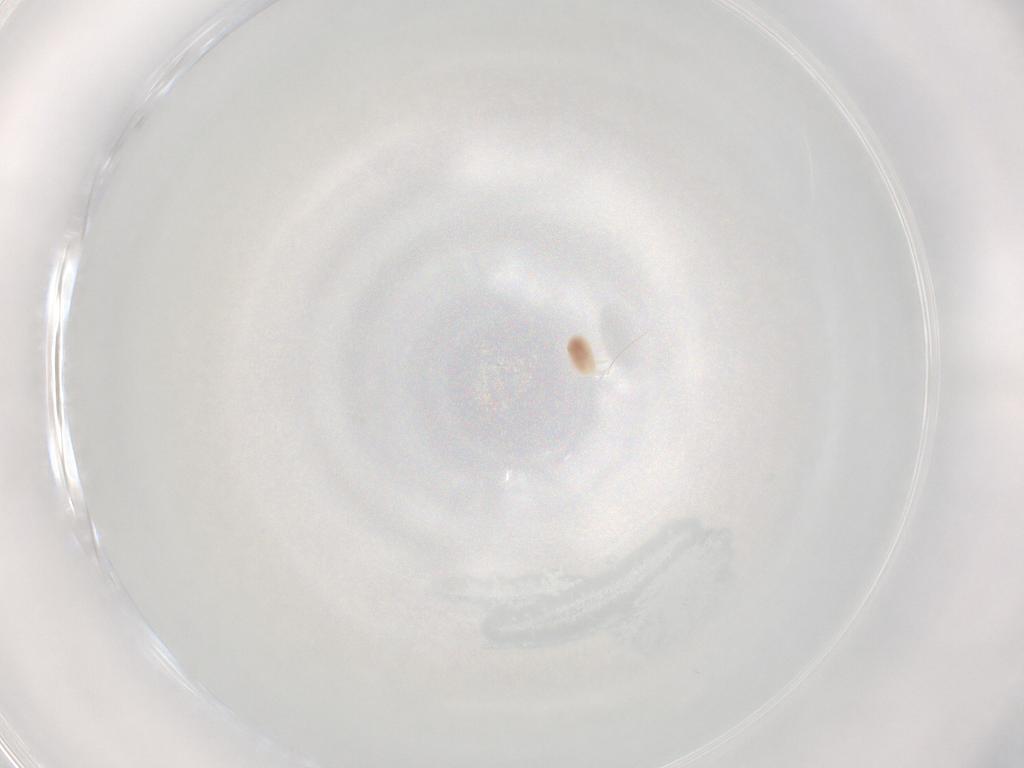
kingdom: Animalia
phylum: Arthropoda
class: Arachnida
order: Trombidiformes
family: Microtrombidiidae
